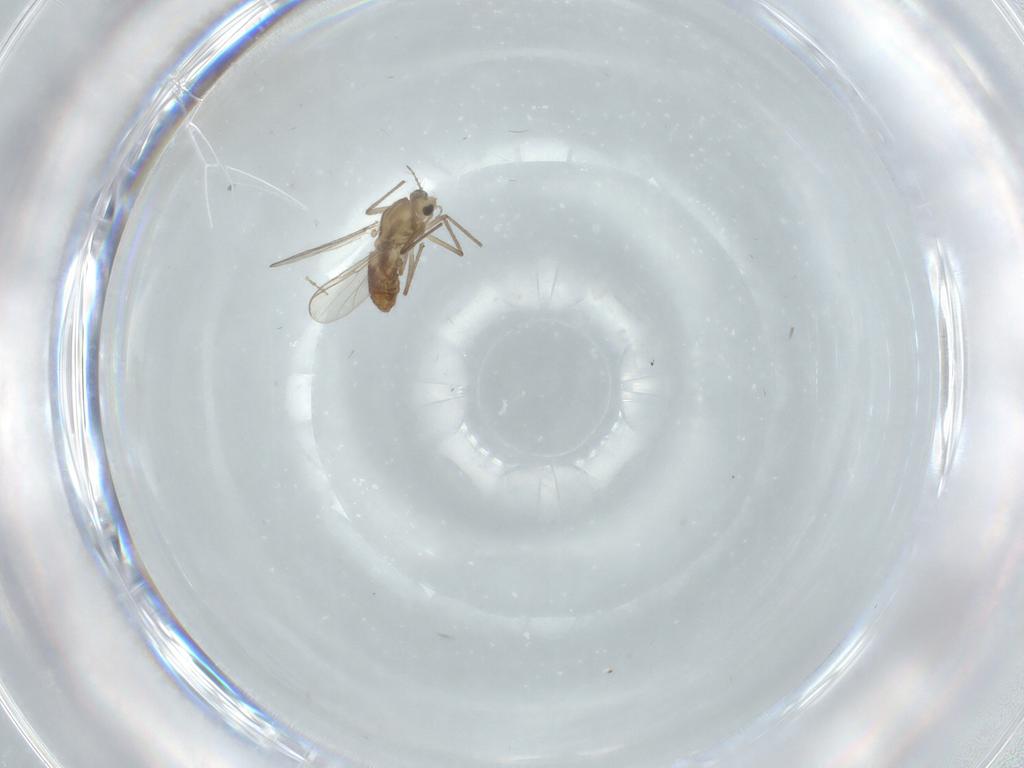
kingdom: Animalia
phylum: Arthropoda
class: Insecta
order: Diptera
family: Chironomidae
